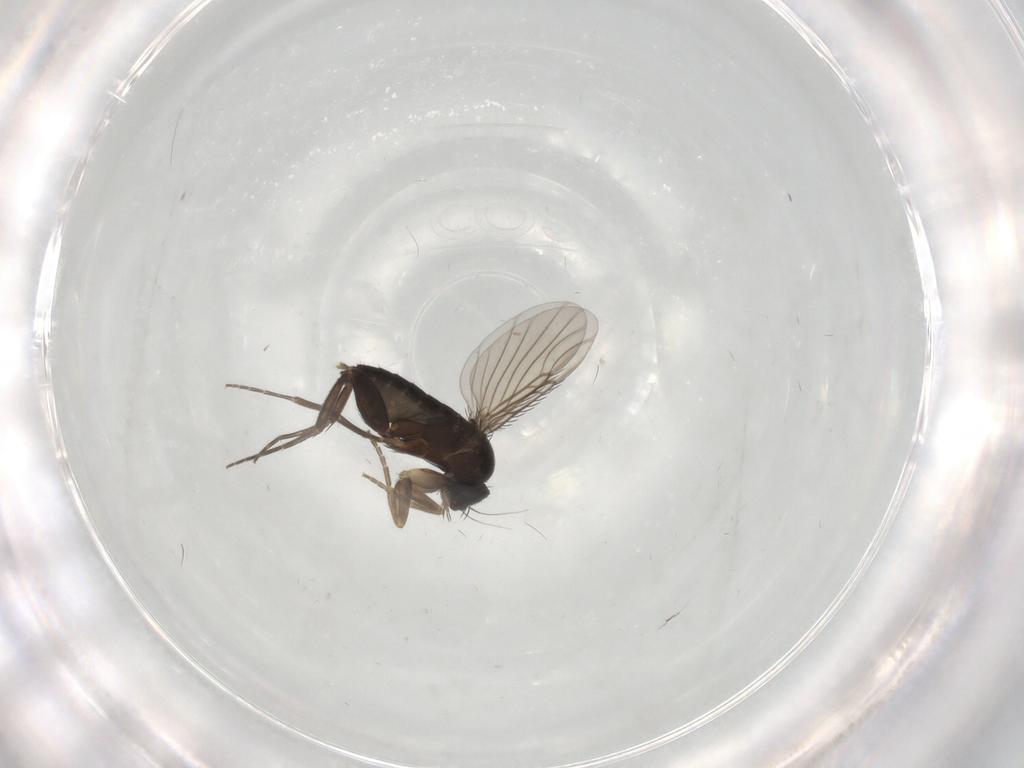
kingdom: Animalia
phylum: Arthropoda
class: Insecta
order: Diptera
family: Phoridae
